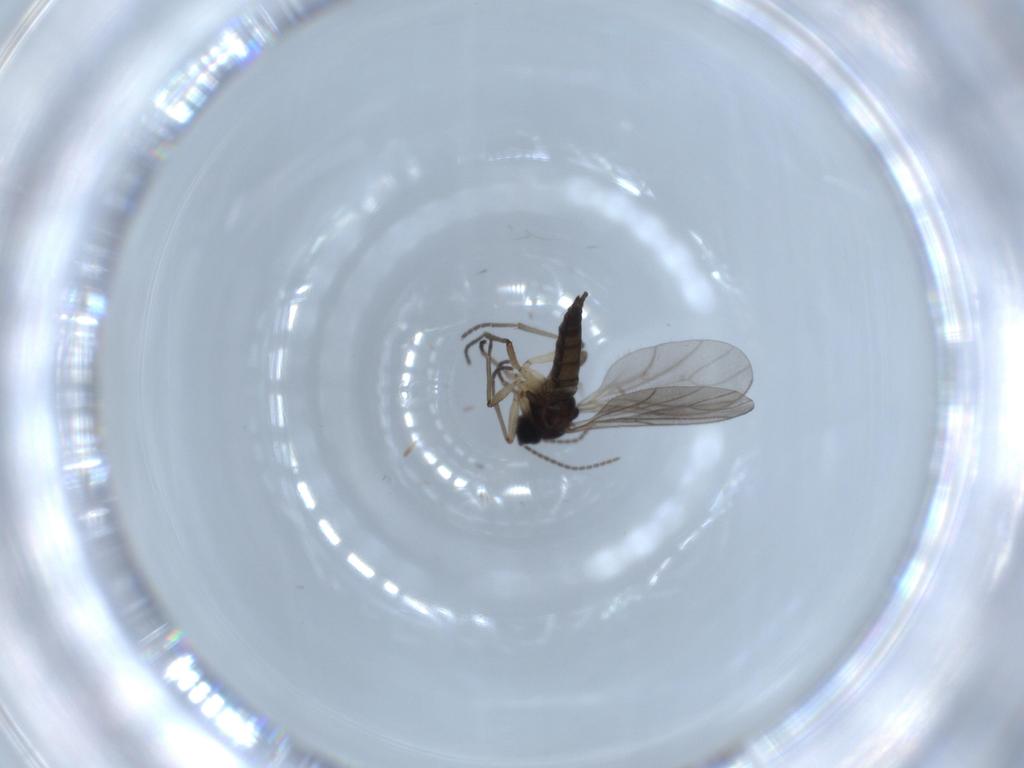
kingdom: Animalia
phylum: Arthropoda
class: Insecta
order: Diptera
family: Sciaridae
